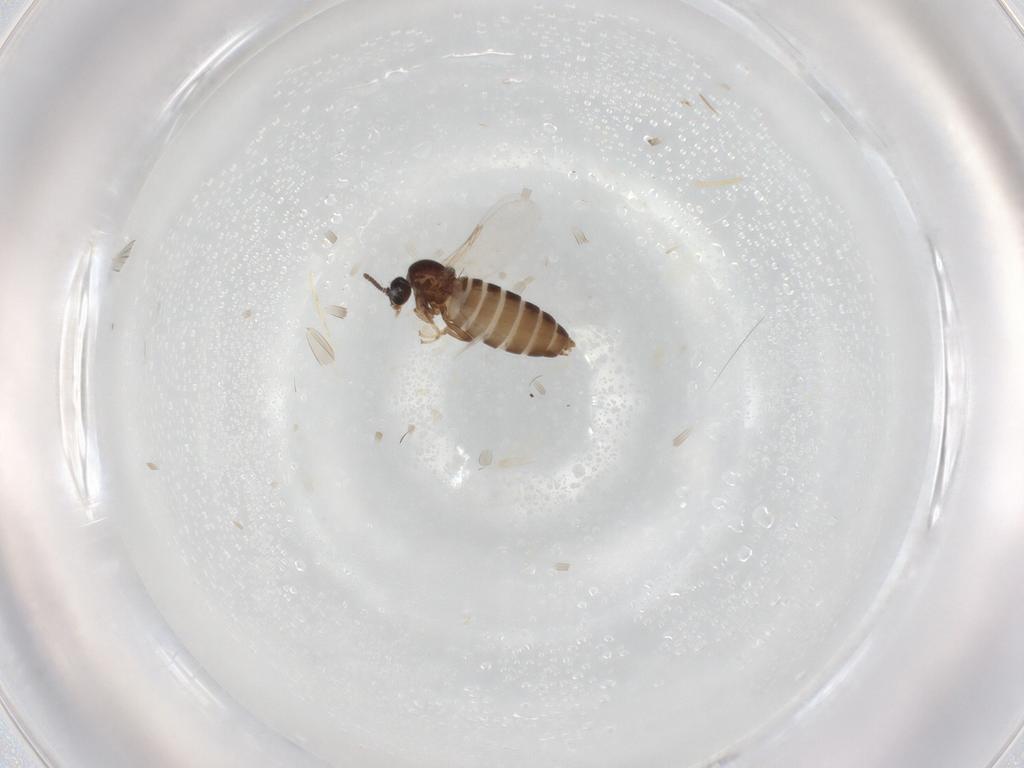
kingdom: Animalia
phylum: Arthropoda
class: Insecta
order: Diptera
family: Scatopsidae
